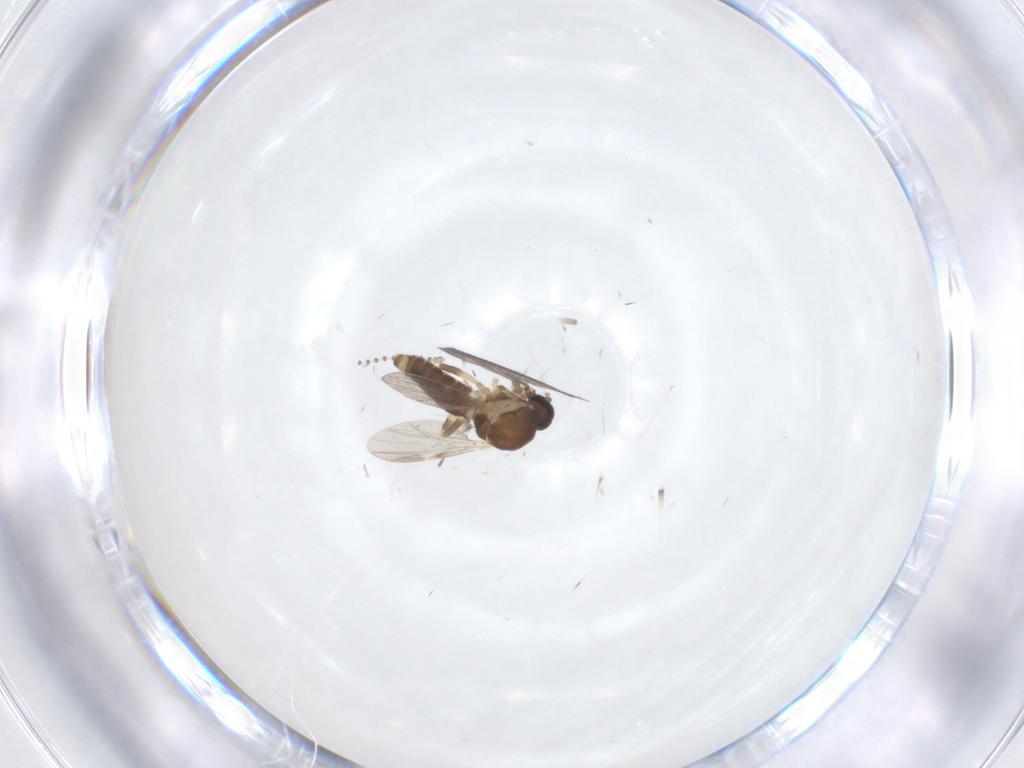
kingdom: Animalia
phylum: Arthropoda
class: Insecta
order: Diptera
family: Ceratopogonidae
